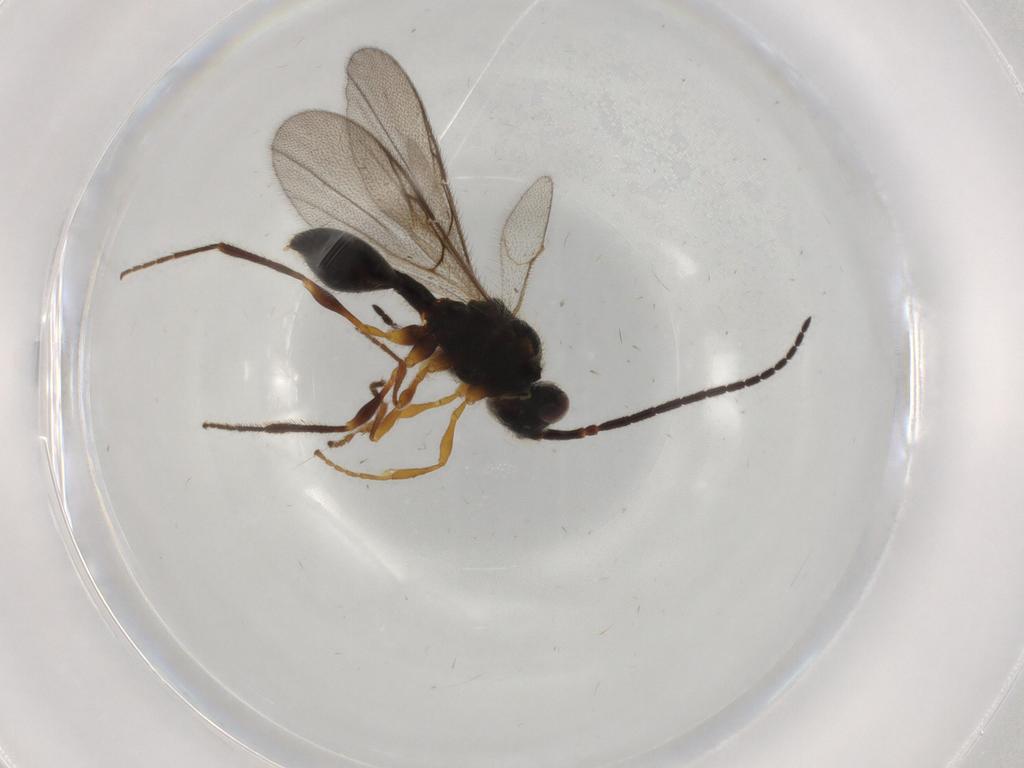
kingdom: Animalia
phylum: Arthropoda
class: Insecta
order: Hymenoptera
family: Diapriidae
